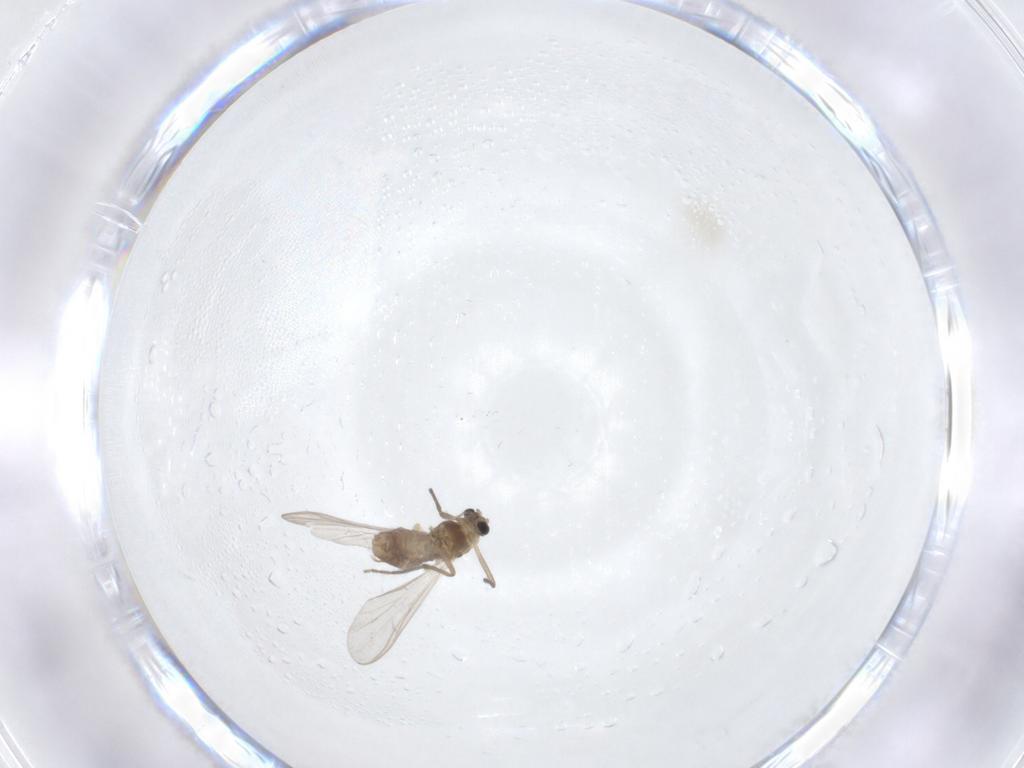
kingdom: Animalia
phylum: Arthropoda
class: Insecta
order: Diptera
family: Chironomidae
